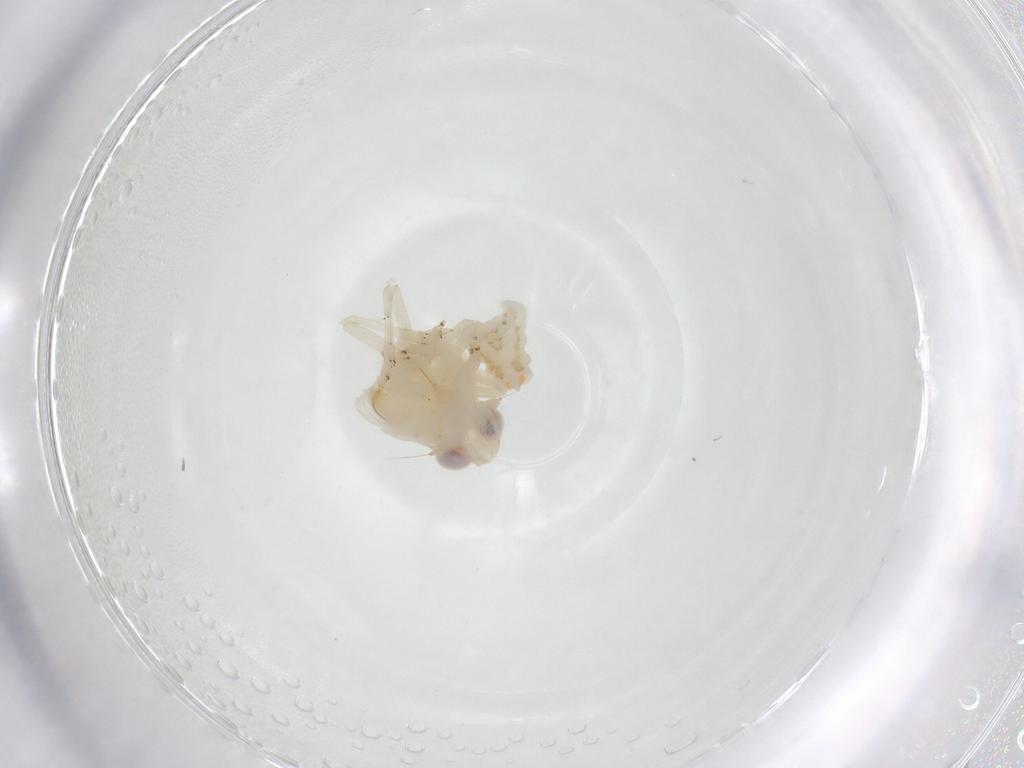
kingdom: Animalia
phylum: Arthropoda
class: Insecta
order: Hemiptera
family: Nogodinidae
